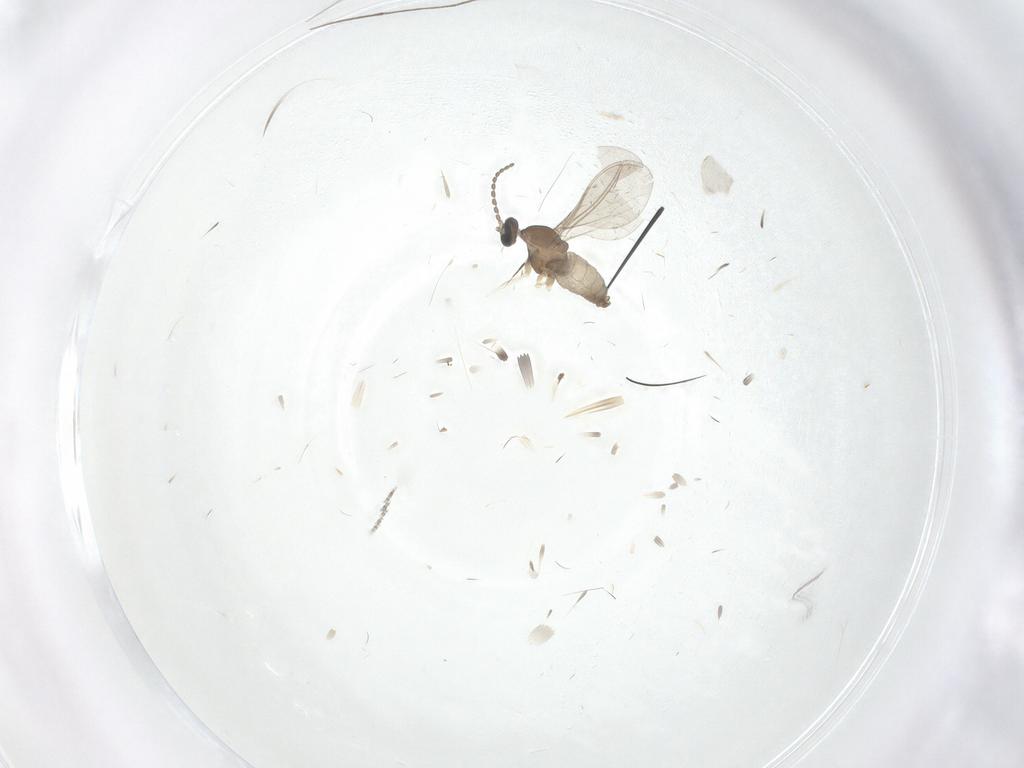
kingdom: Animalia
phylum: Arthropoda
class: Insecta
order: Diptera
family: Cecidomyiidae
